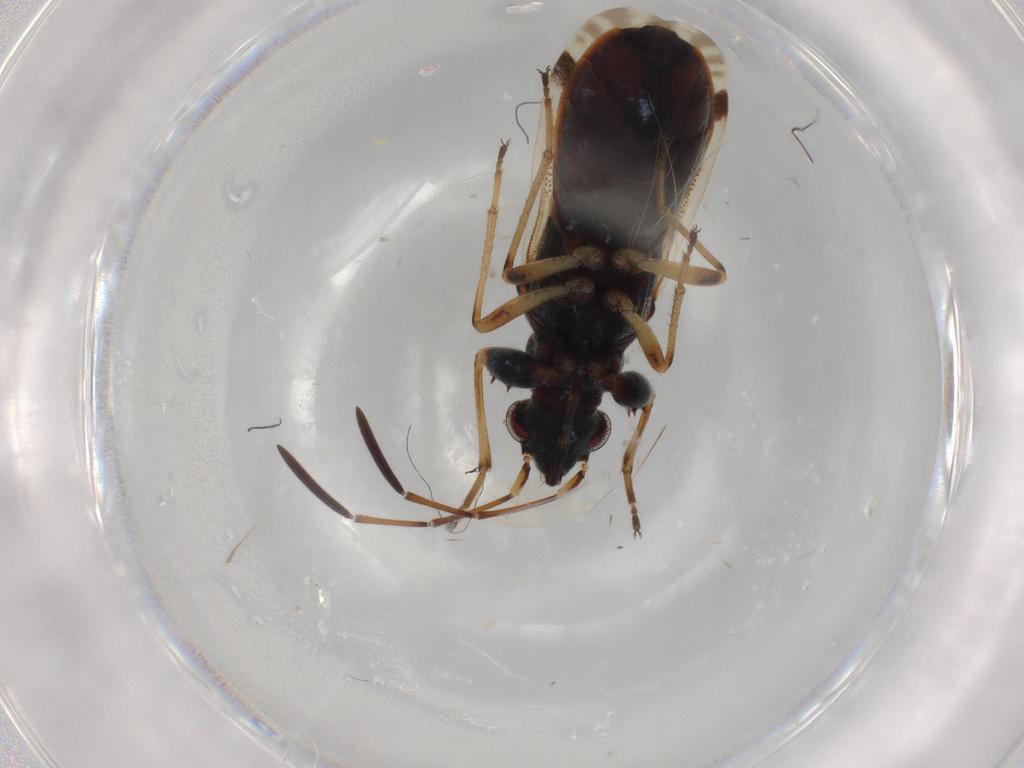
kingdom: Animalia
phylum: Arthropoda
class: Insecta
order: Hemiptera
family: Rhyparochromidae
